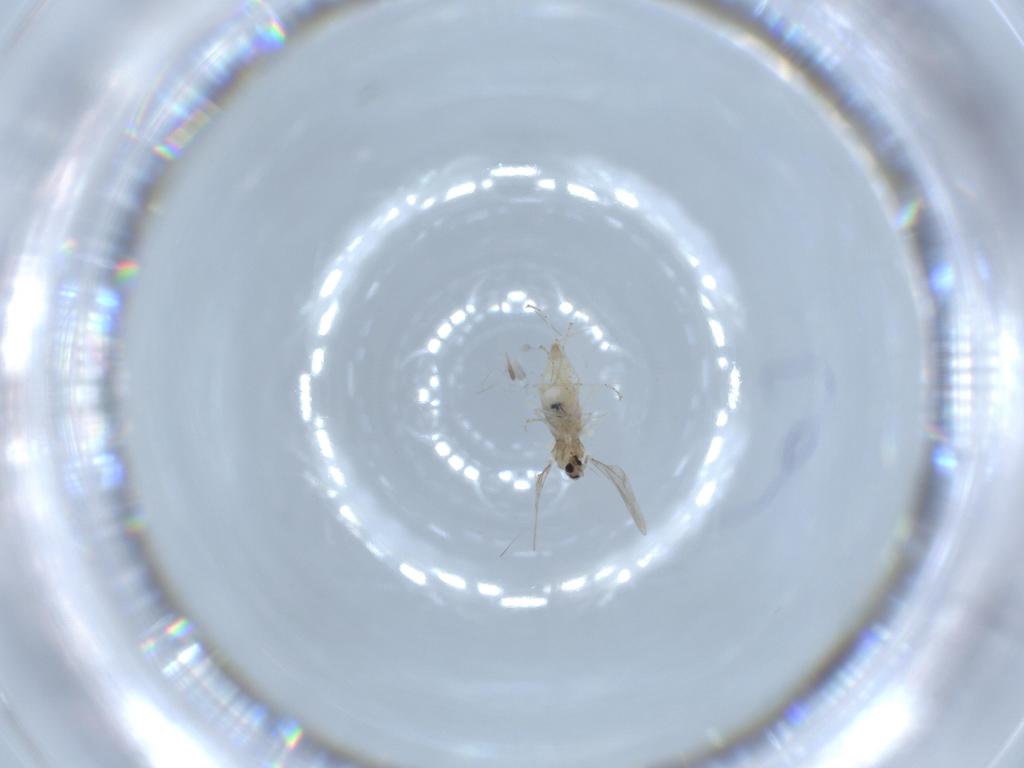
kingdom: Animalia
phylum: Arthropoda
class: Insecta
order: Diptera
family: Cecidomyiidae
